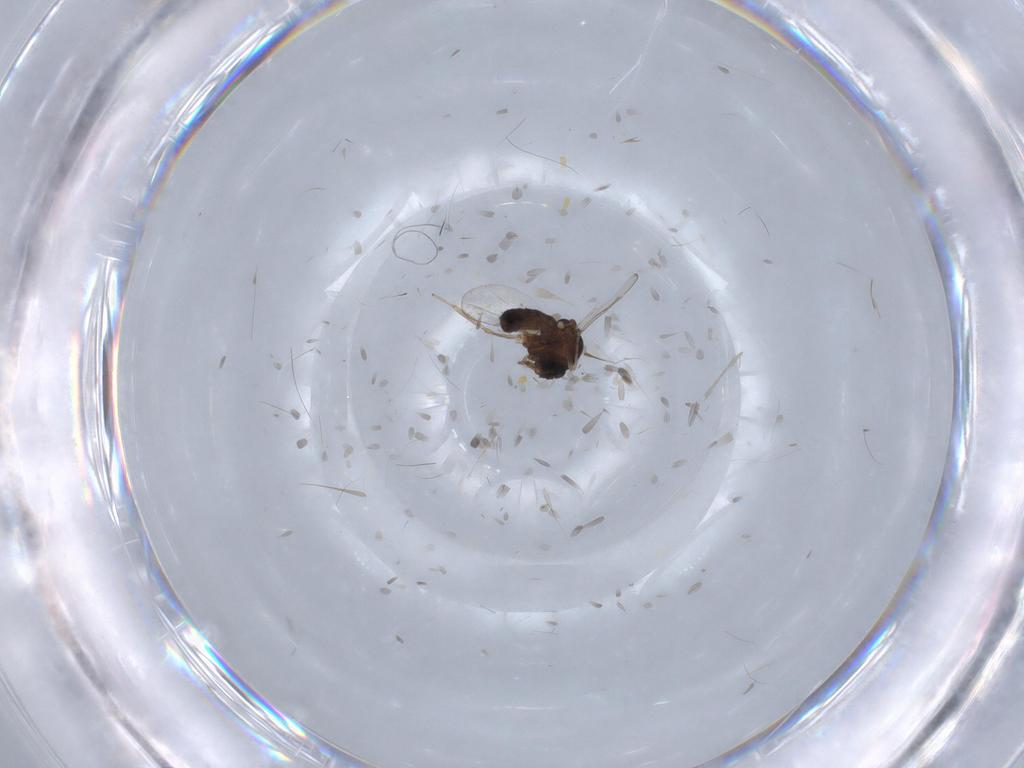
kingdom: Animalia
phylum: Arthropoda
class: Insecta
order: Diptera
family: Ceratopogonidae
